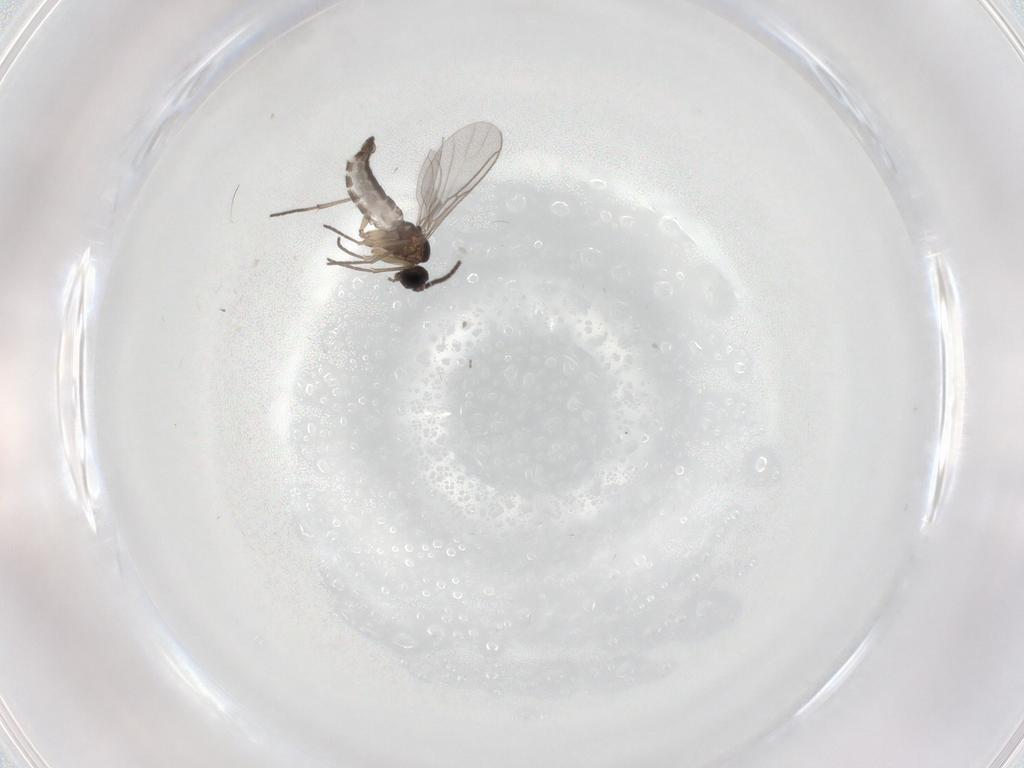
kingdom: Animalia
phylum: Arthropoda
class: Insecta
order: Diptera
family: Sciaridae
